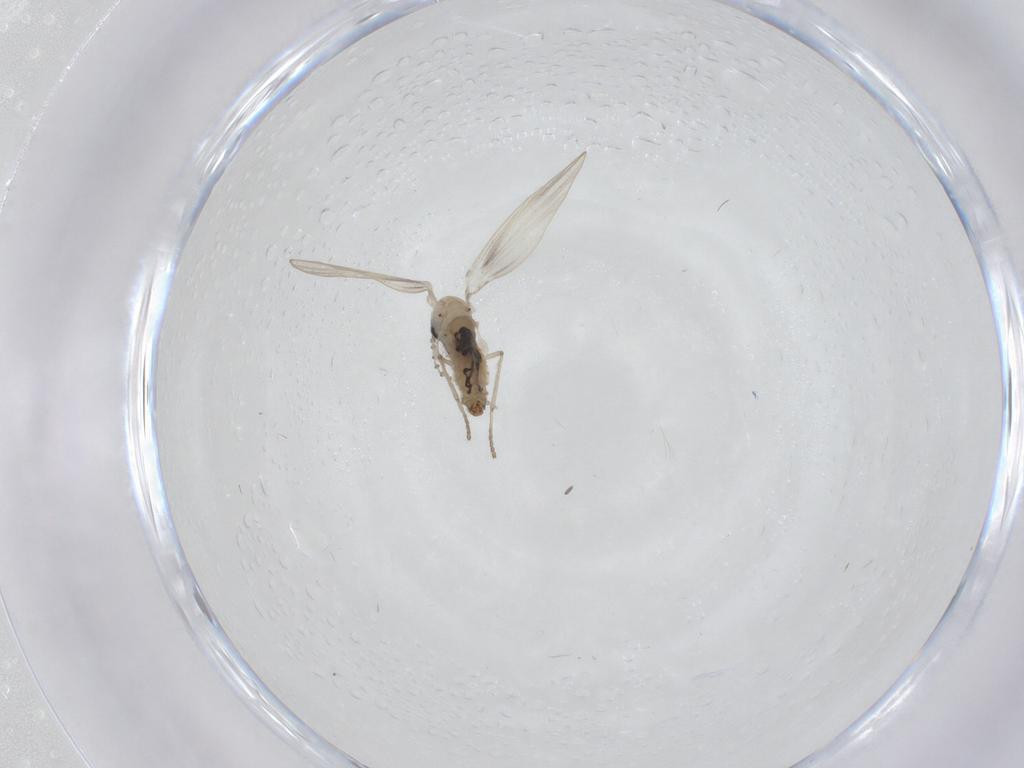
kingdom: Animalia
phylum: Arthropoda
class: Insecta
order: Diptera
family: Psychodidae
